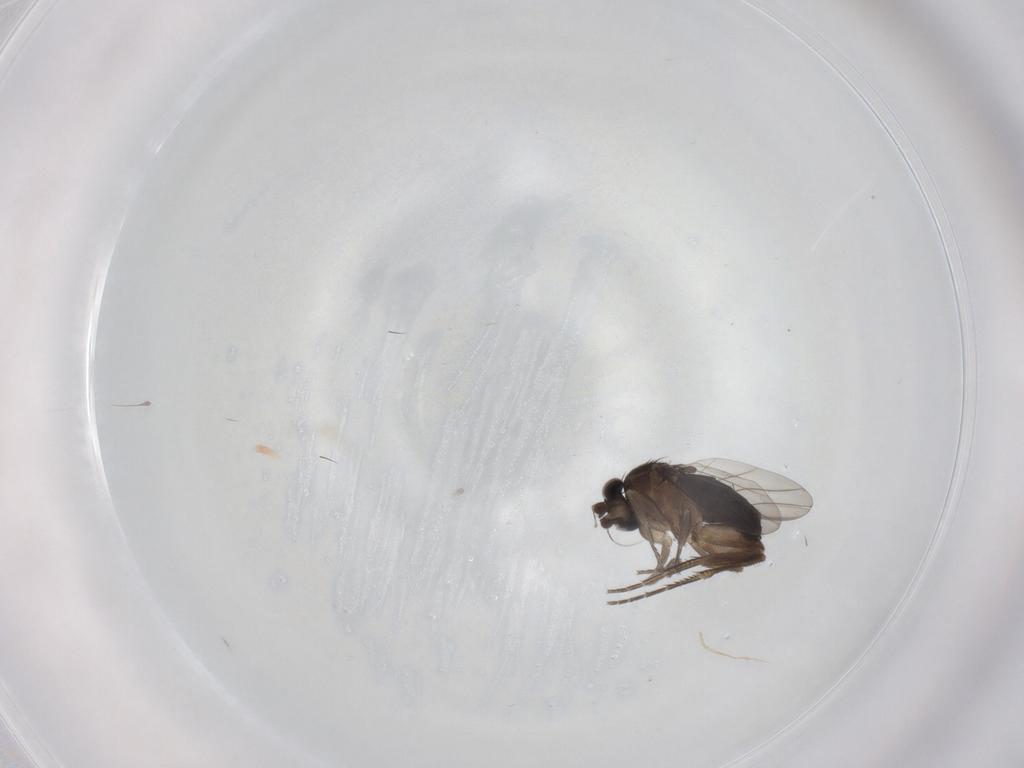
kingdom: Animalia
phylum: Arthropoda
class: Insecta
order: Diptera
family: Phoridae
